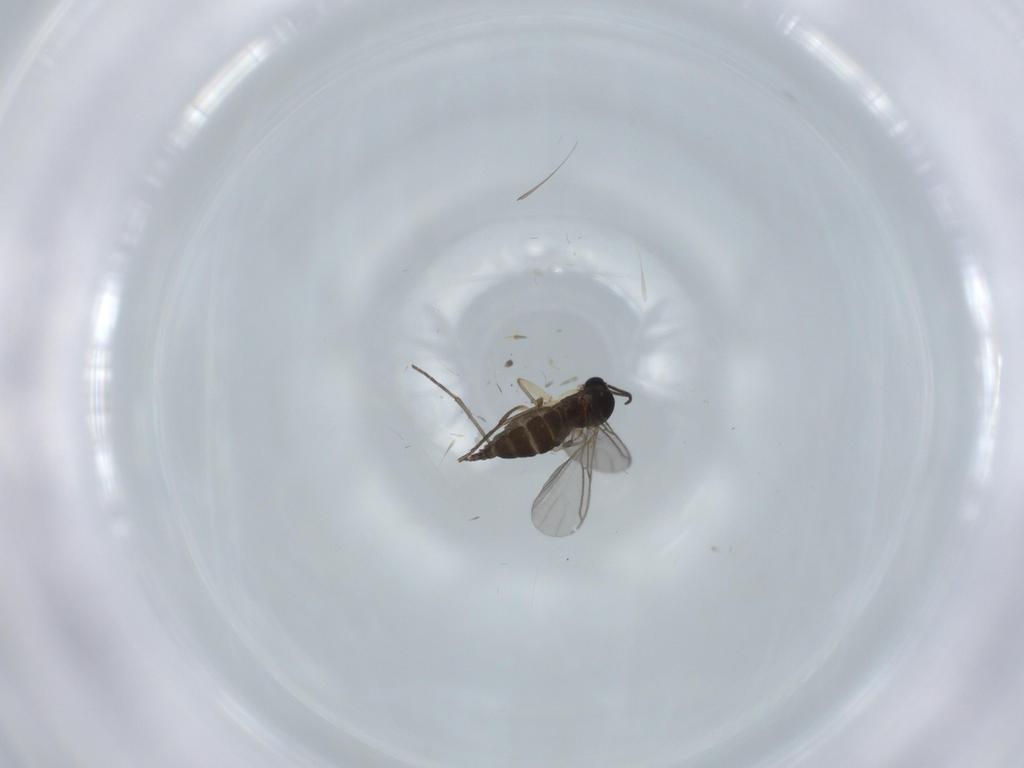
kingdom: Animalia
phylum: Arthropoda
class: Insecta
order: Diptera
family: Sciaridae
